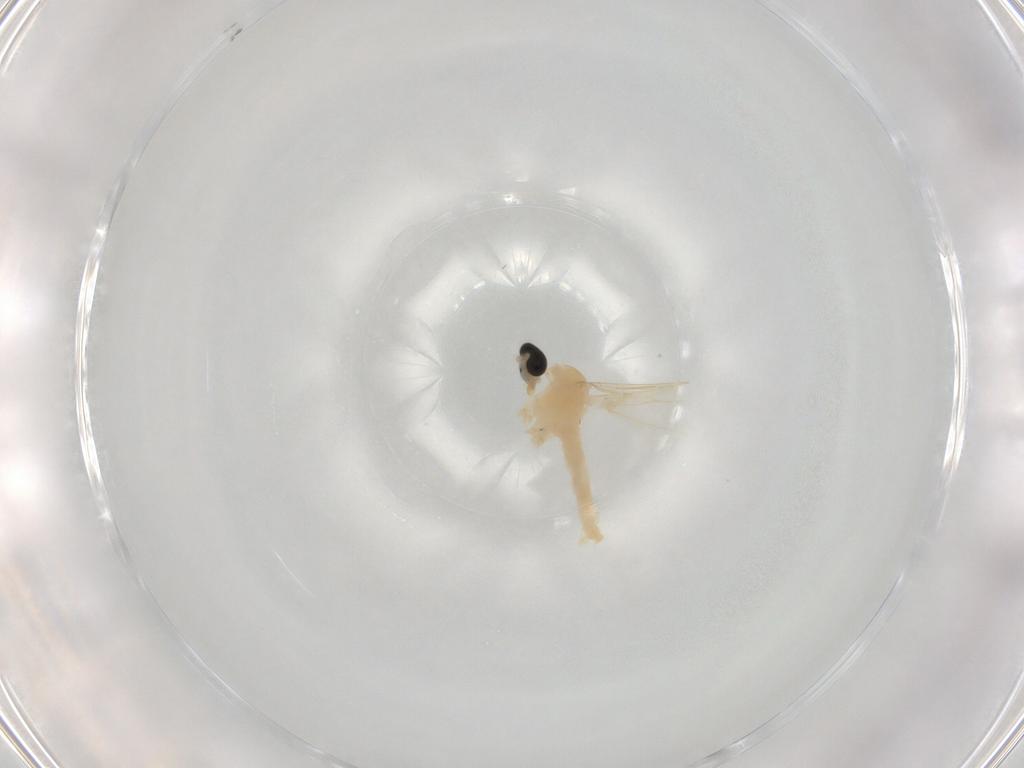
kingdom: Animalia
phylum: Arthropoda
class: Insecta
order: Diptera
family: Cecidomyiidae
